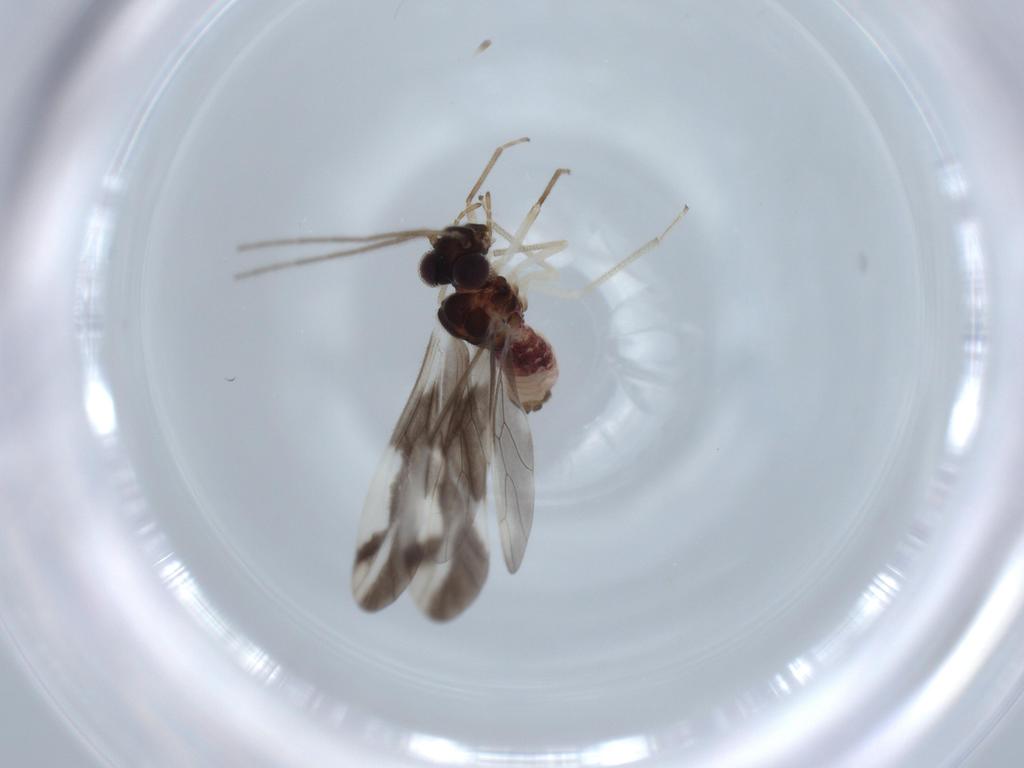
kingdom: Animalia
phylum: Arthropoda
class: Insecta
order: Psocodea
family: Caeciliusidae
